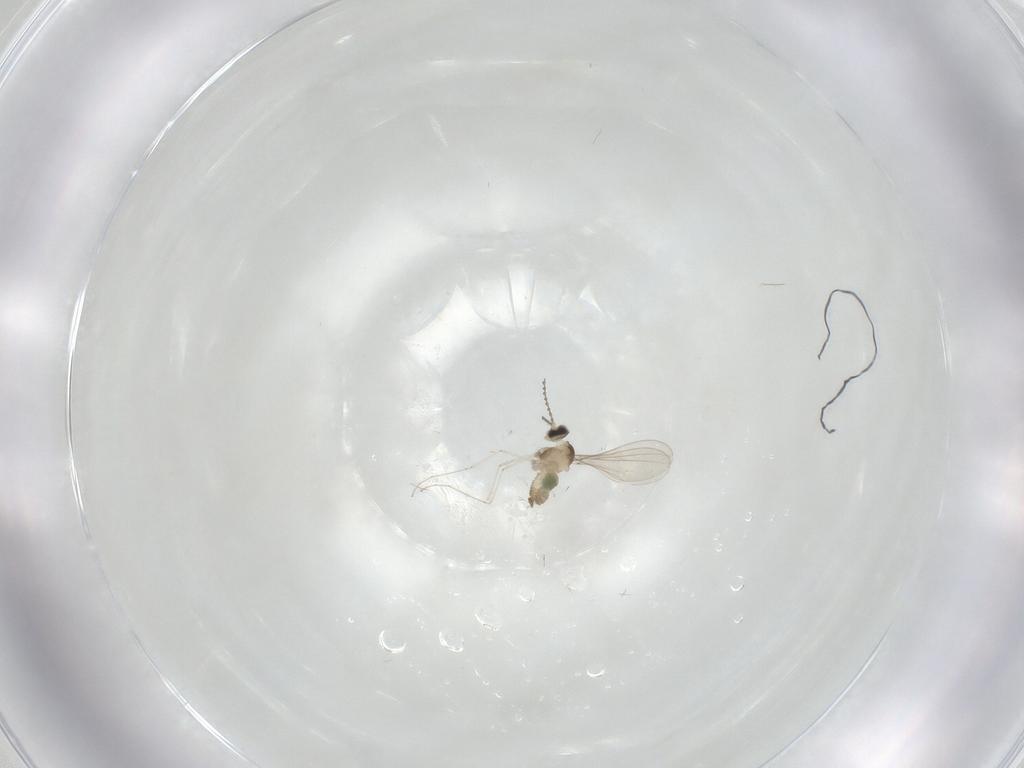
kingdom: Animalia
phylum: Arthropoda
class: Insecta
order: Diptera
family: Cecidomyiidae
